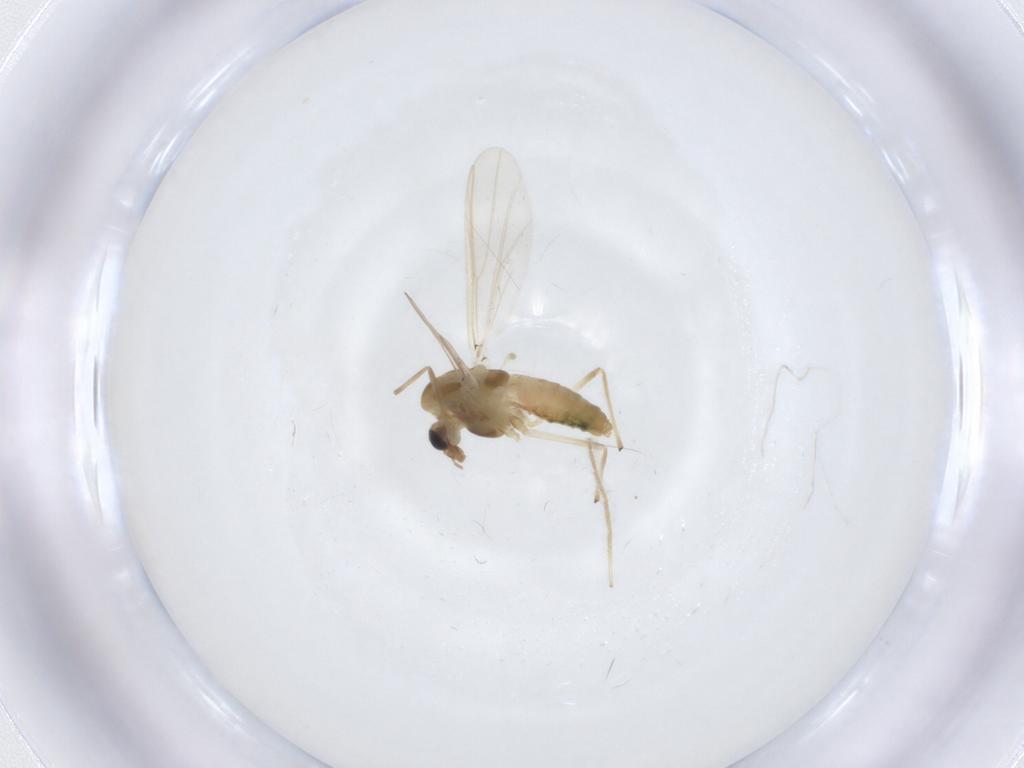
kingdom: Animalia
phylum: Arthropoda
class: Insecta
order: Diptera
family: Chironomidae
